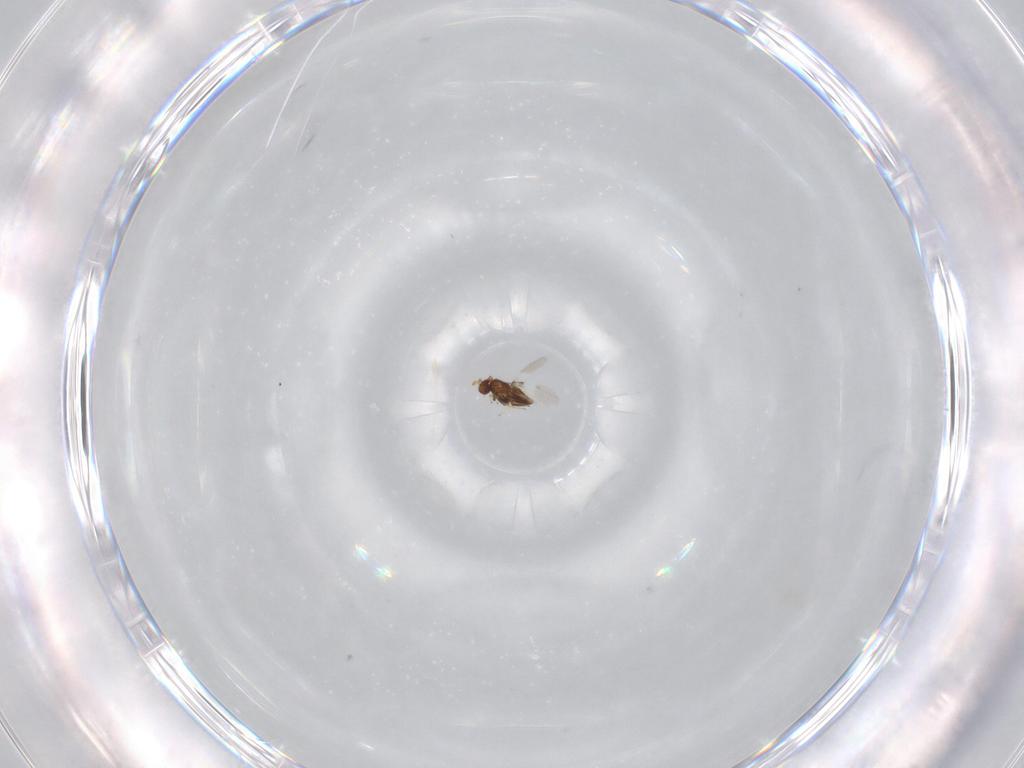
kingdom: Animalia
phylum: Arthropoda
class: Insecta
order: Hymenoptera
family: Trichogrammatidae
